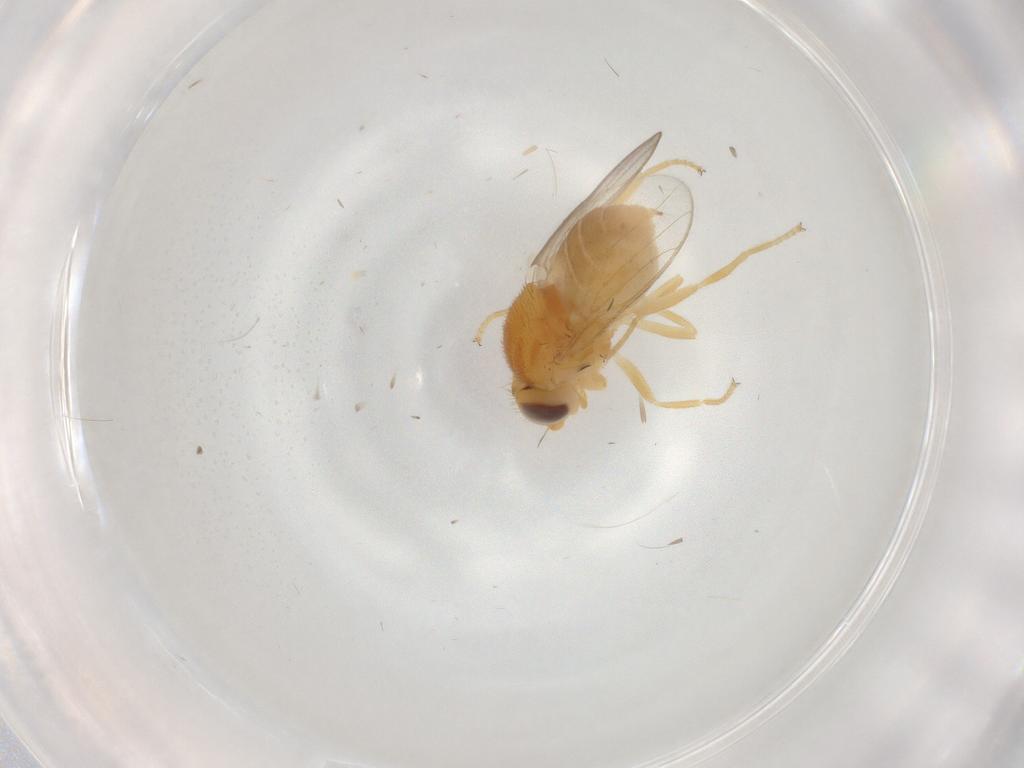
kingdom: Animalia
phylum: Arthropoda
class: Insecta
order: Diptera
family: Chloropidae
